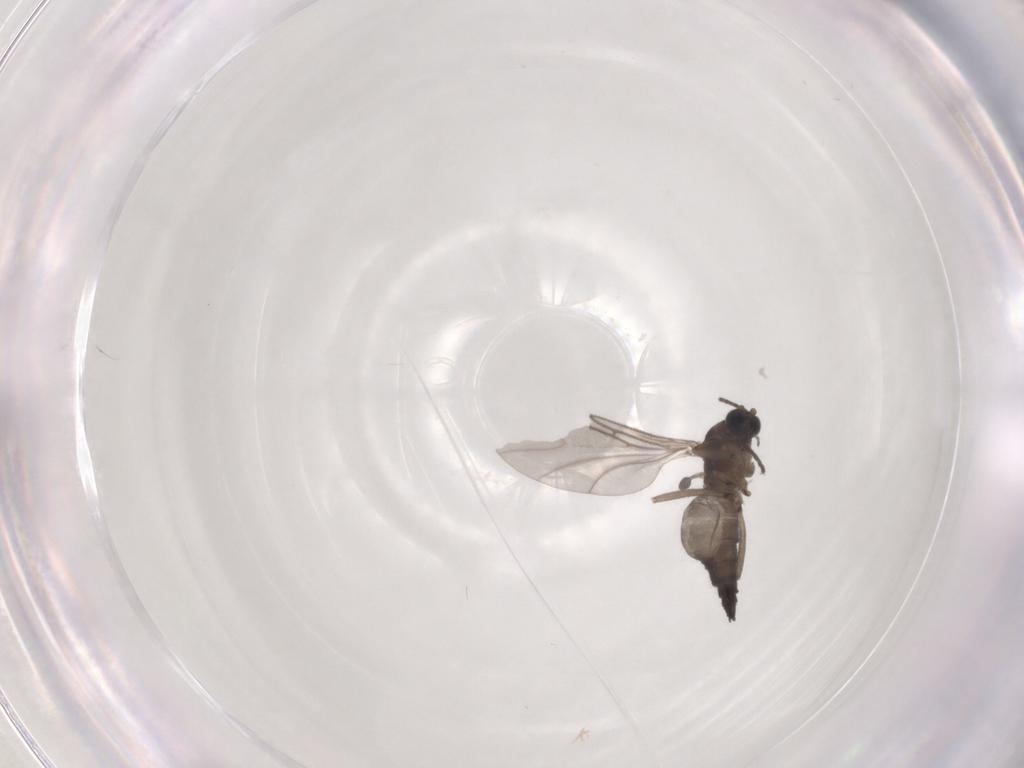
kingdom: Animalia
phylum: Arthropoda
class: Insecta
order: Diptera
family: Sciaridae
